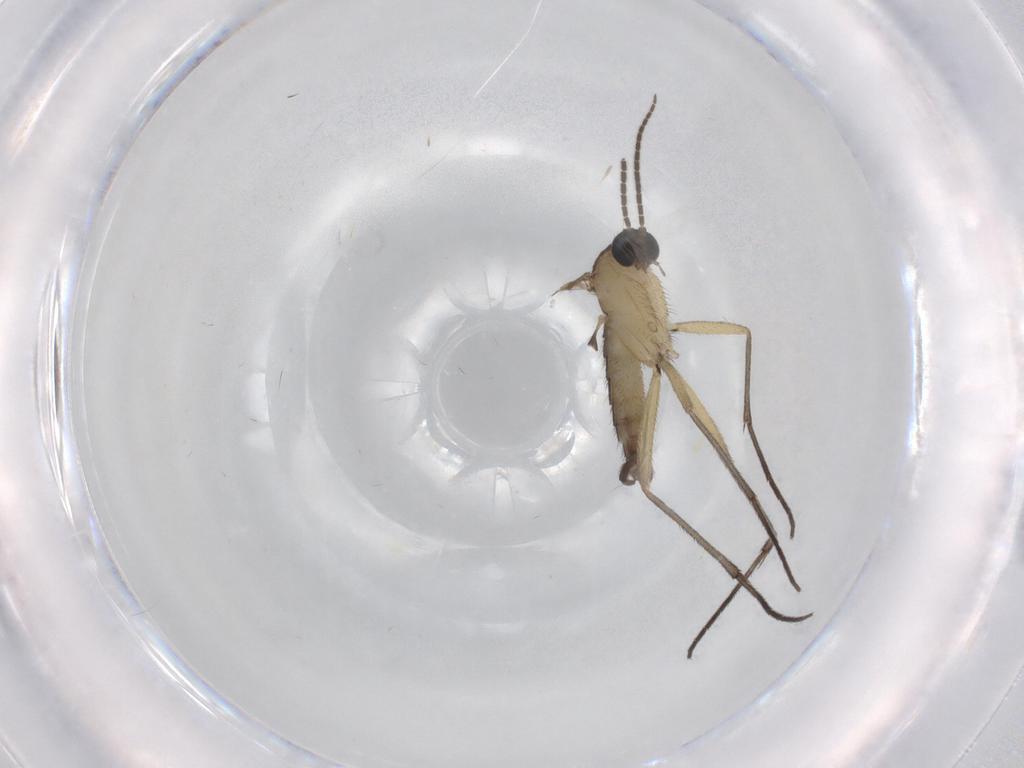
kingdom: Animalia
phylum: Arthropoda
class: Insecta
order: Diptera
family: Sciaridae
